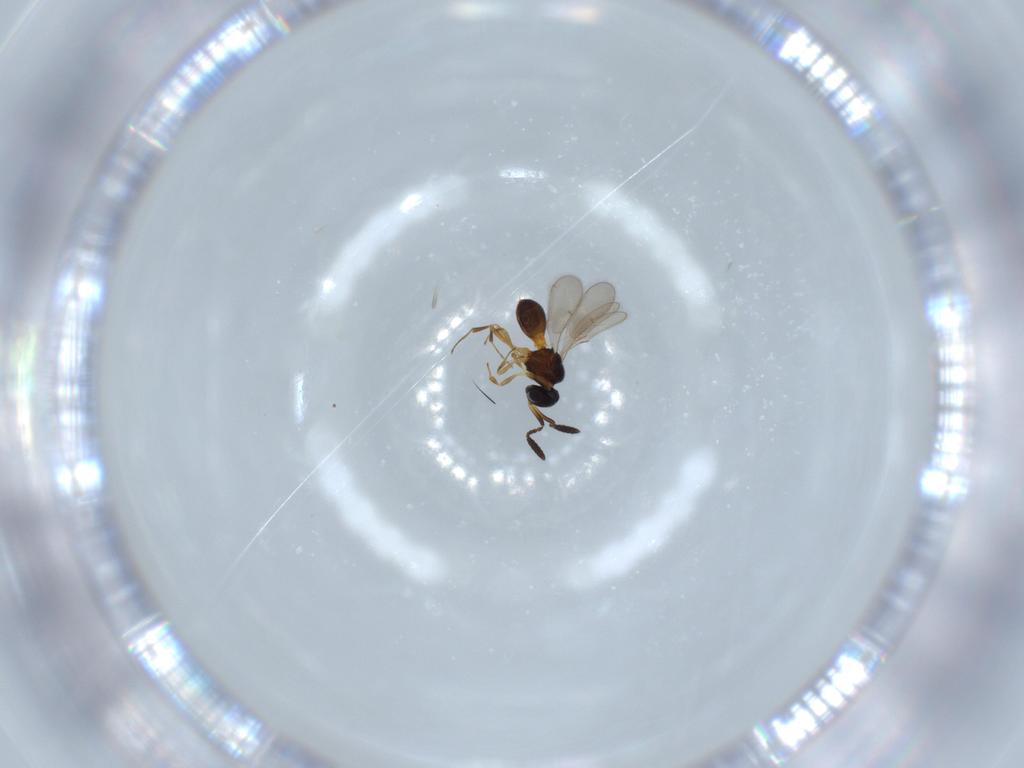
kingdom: Animalia
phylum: Arthropoda
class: Insecta
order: Hymenoptera
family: Scelionidae
